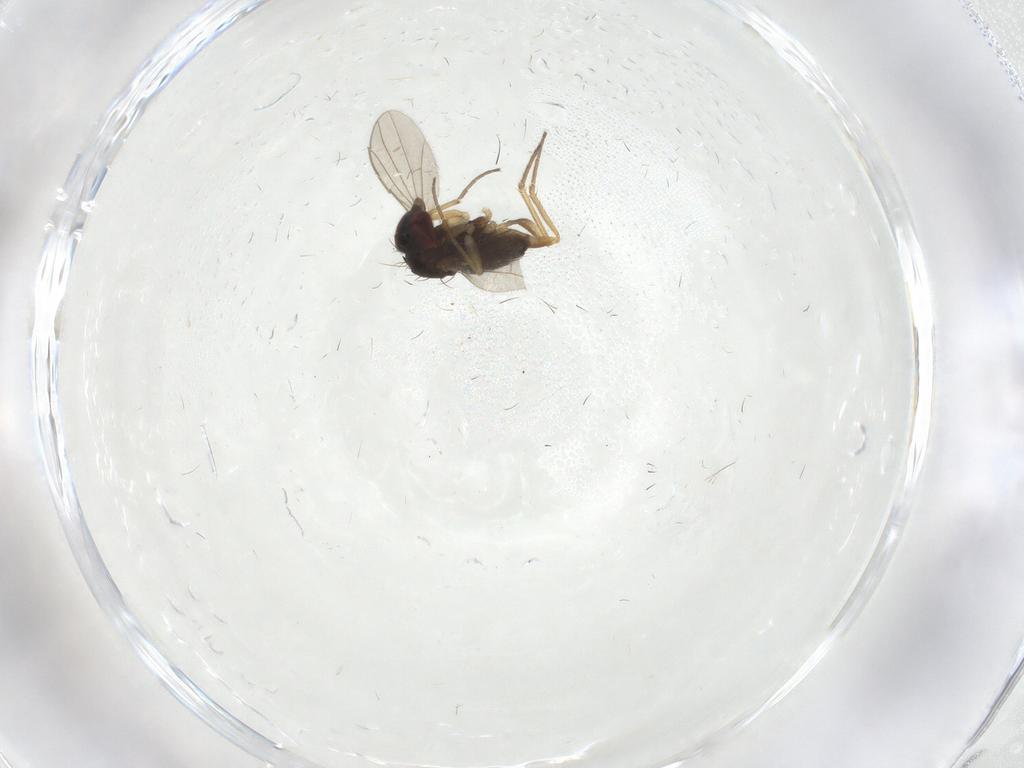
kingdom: Animalia
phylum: Arthropoda
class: Insecta
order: Diptera
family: Dolichopodidae
